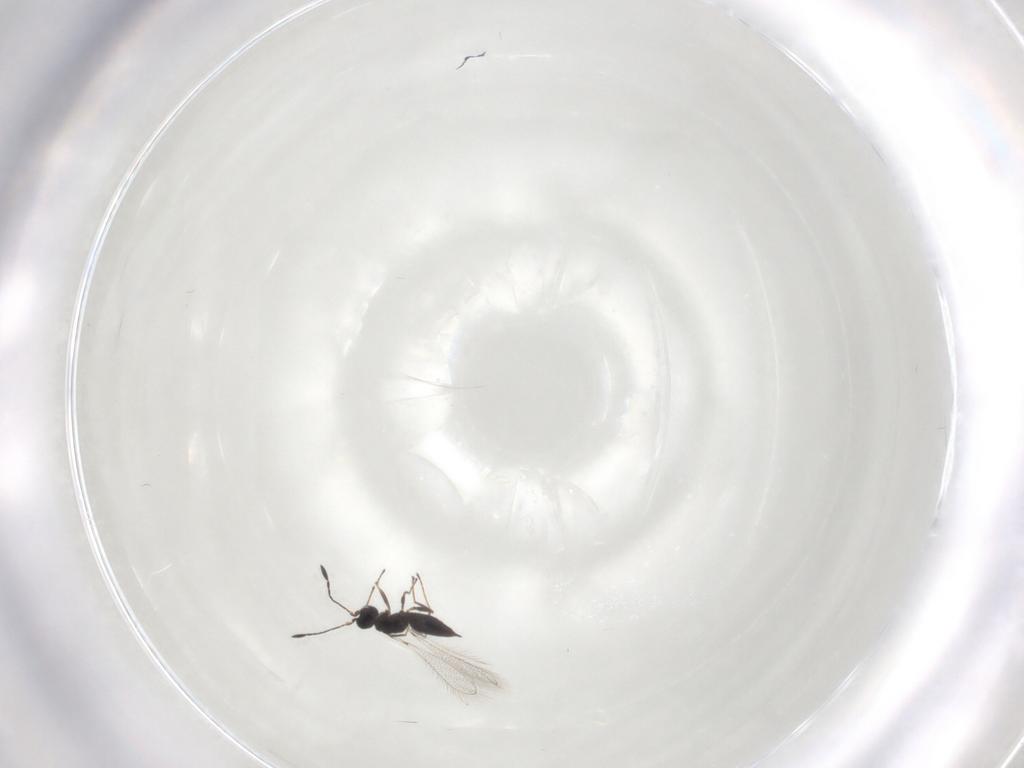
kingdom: Animalia
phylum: Arthropoda
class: Insecta
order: Hymenoptera
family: Mymaridae
